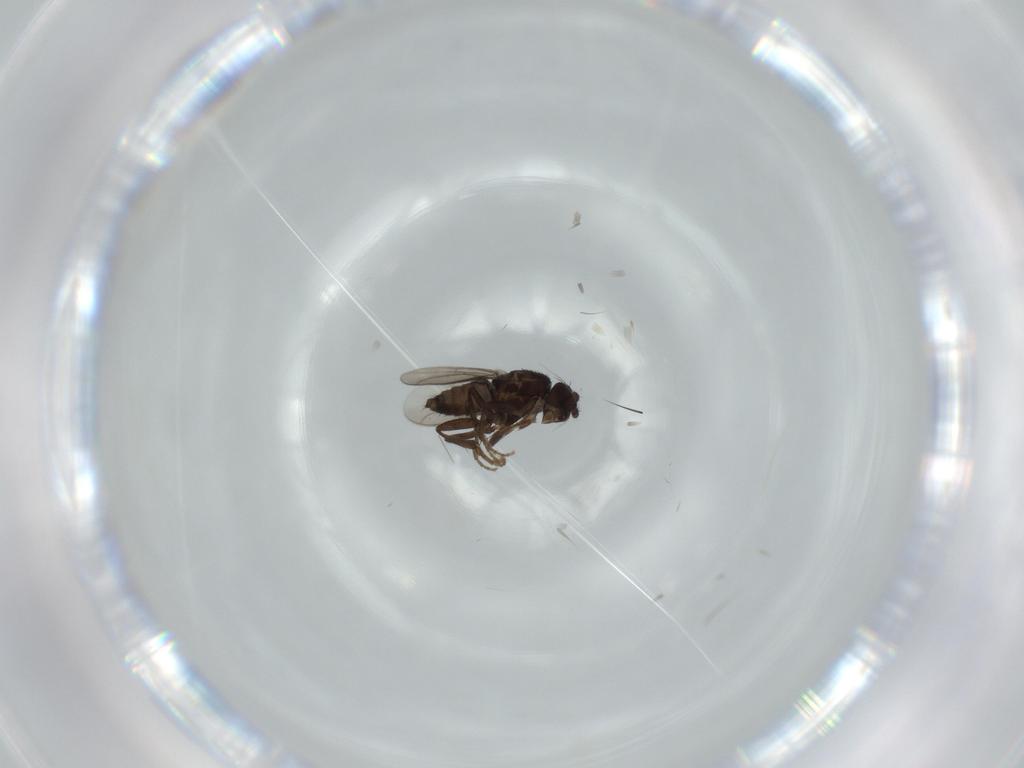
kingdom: Animalia
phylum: Arthropoda
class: Insecta
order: Diptera
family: Sphaeroceridae
